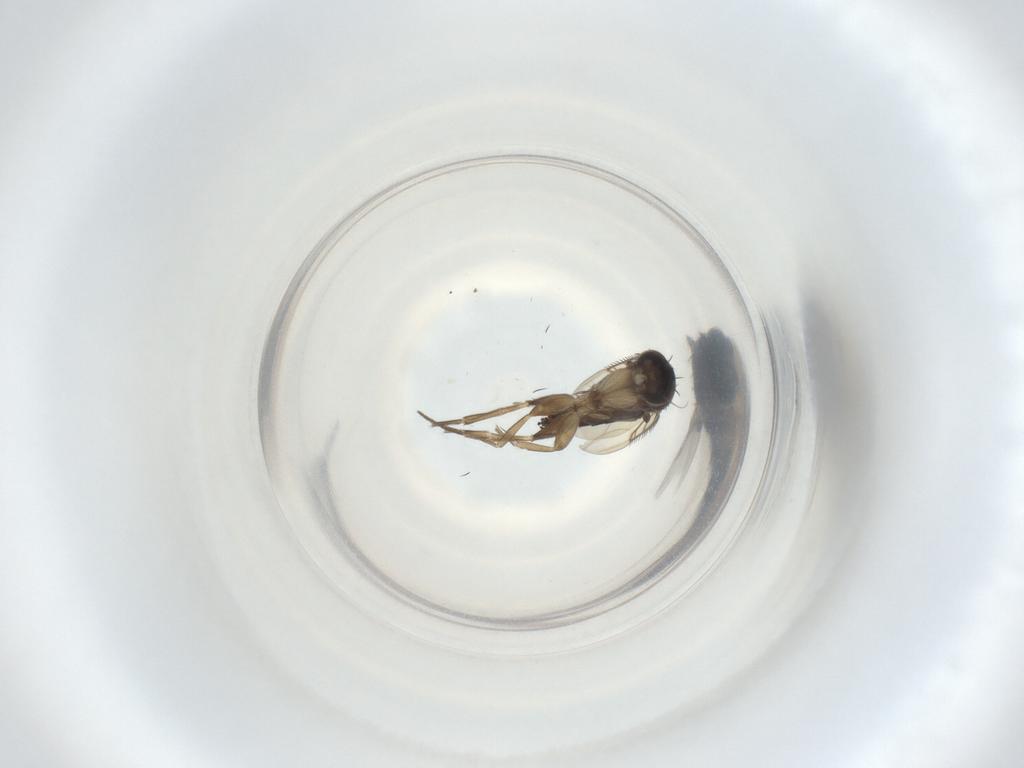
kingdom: Animalia
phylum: Arthropoda
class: Insecta
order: Diptera
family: Phoridae
